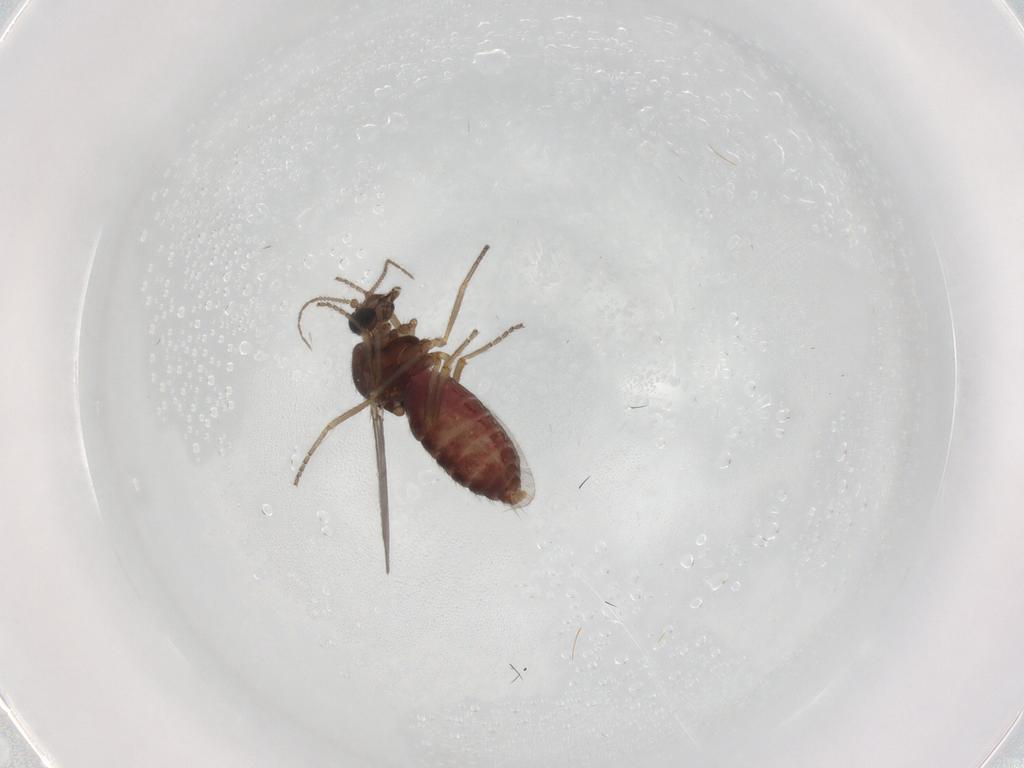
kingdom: Animalia
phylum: Arthropoda
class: Insecta
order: Diptera
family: Ceratopogonidae
